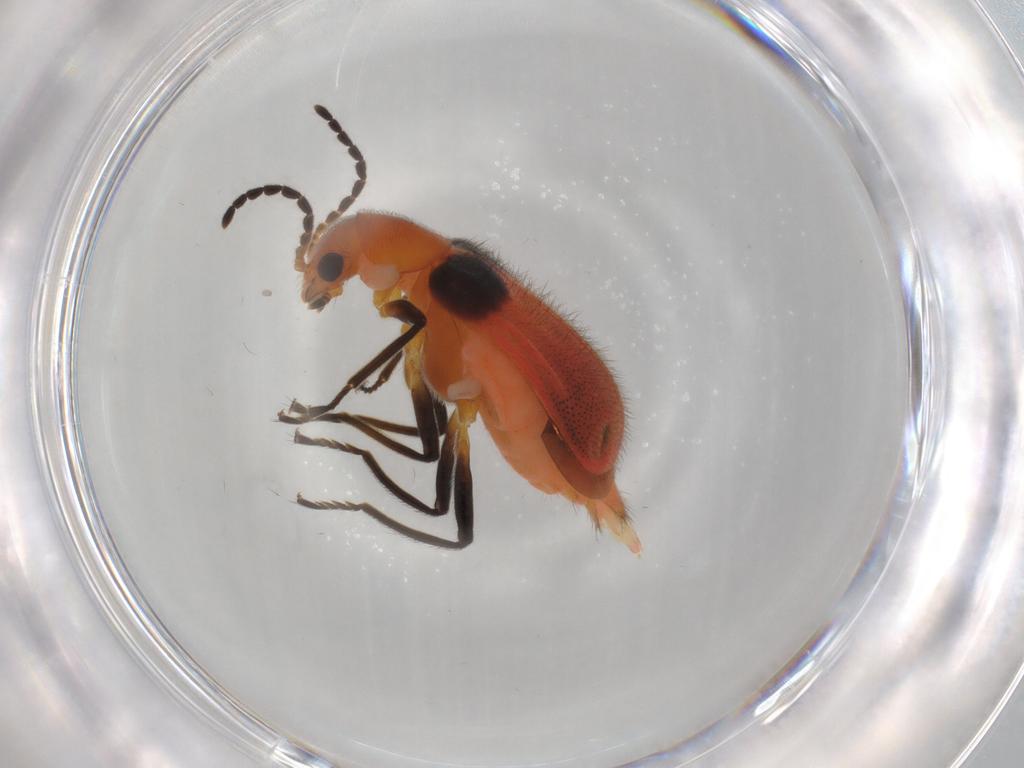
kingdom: Animalia
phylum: Arthropoda
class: Insecta
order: Coleoptera
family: Melyridae
